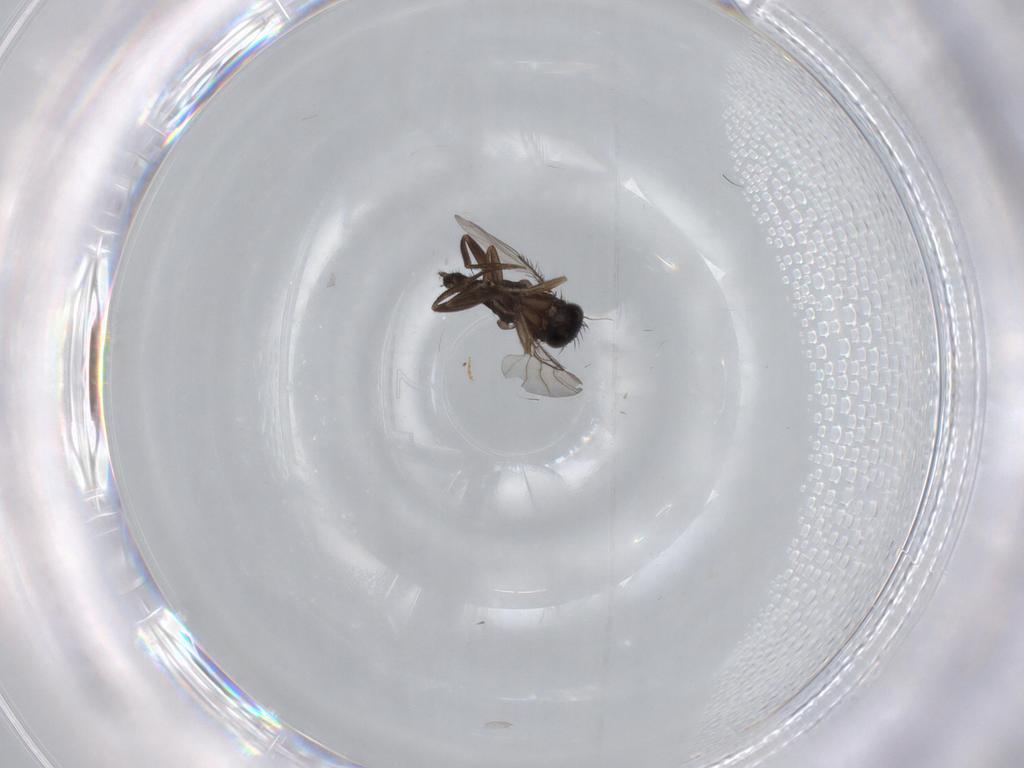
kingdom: Animalia
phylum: Arthropoda
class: Insecta
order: Diptera
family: Phoridae
